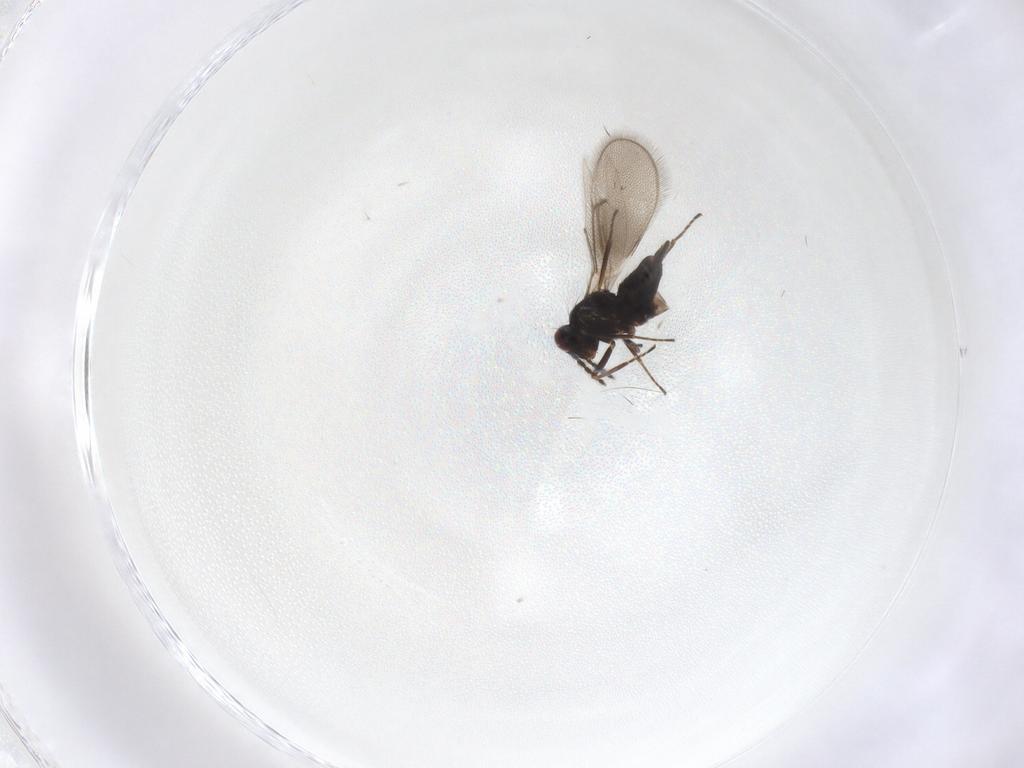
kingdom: Animalia
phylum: Arthropoda
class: Insecta
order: Hymenoptera
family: Eulophidae
